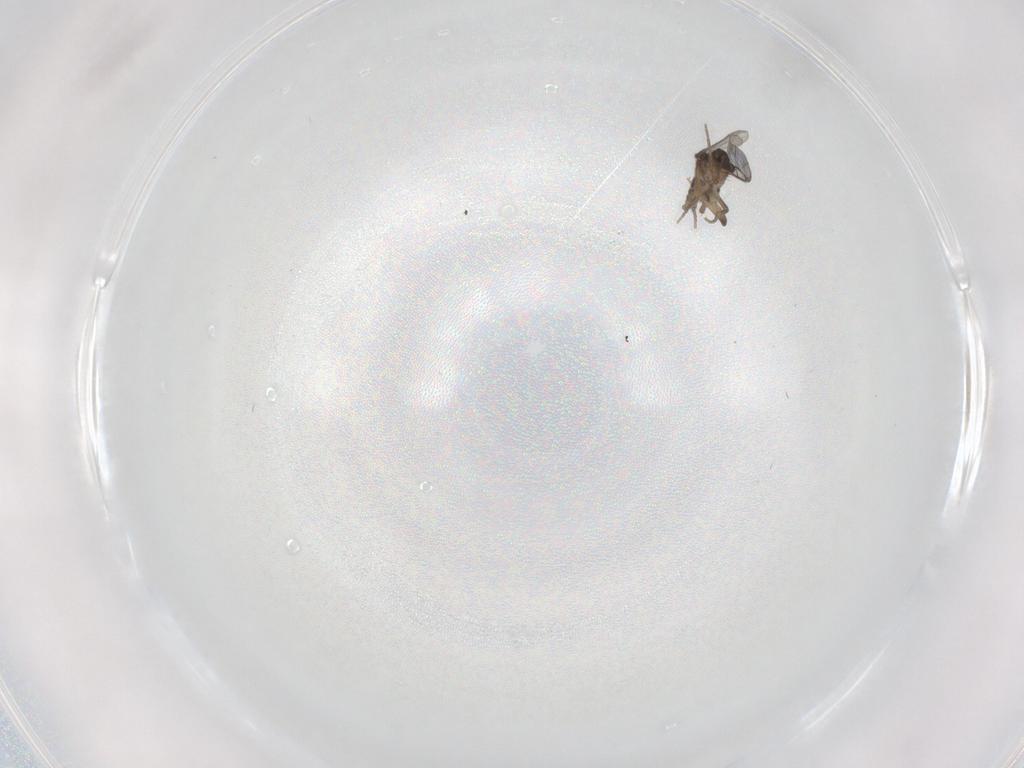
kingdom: Animalia
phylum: Arthropoda
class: Insecta
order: Diptera
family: Phoridae
